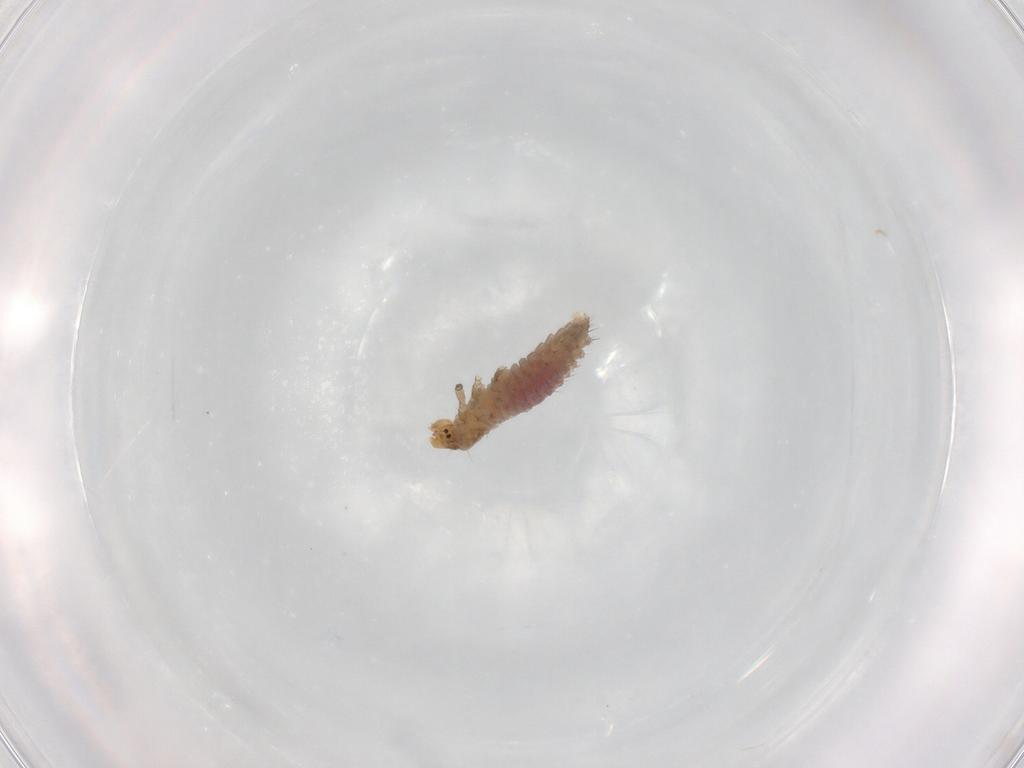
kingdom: Animalia
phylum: Arthropoda
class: Insecta
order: Coleoptera
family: Coccinellidae
